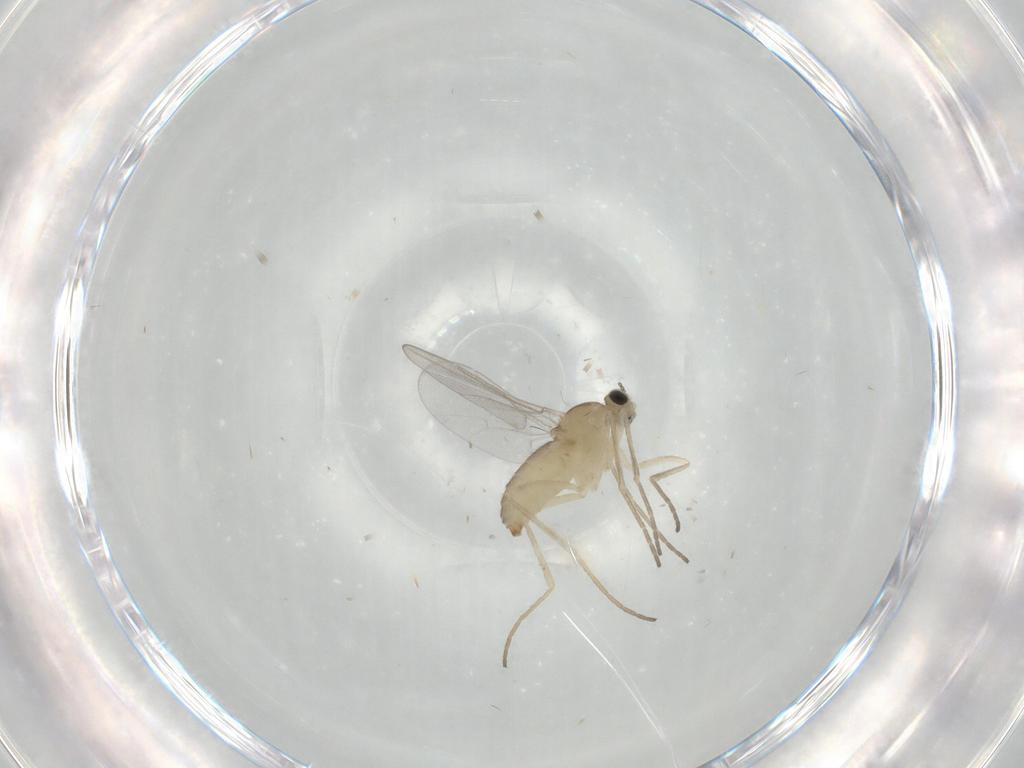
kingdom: Animalia
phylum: Arthropoda
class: Insecta
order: Diptera
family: Cecidomyiidae
